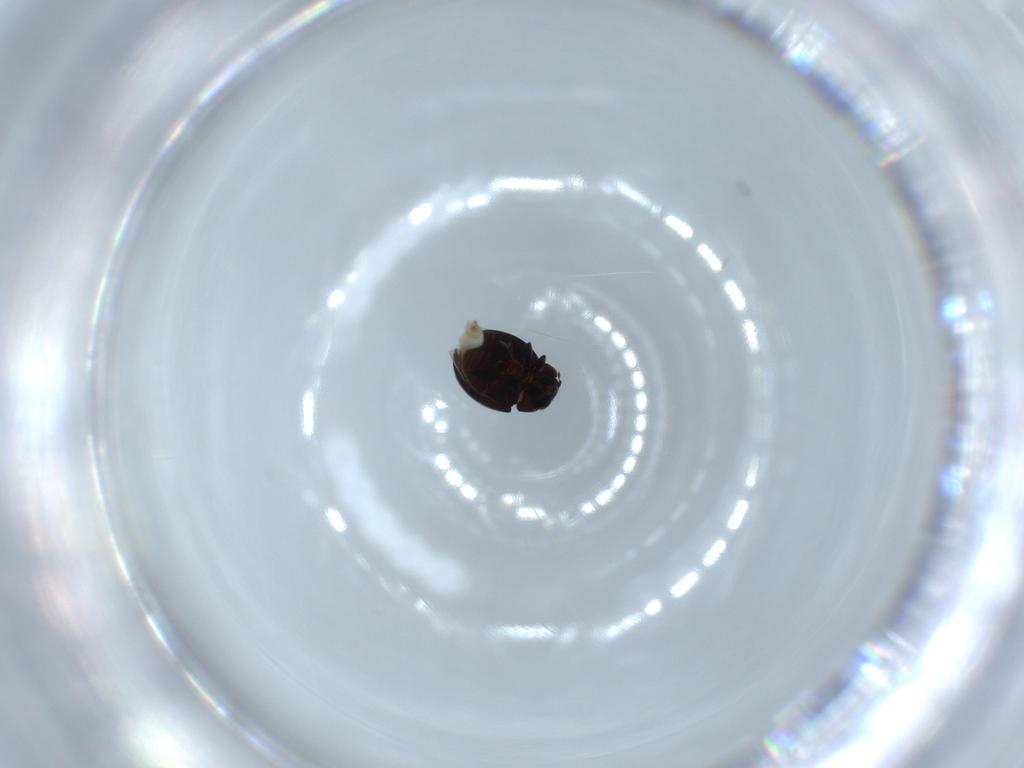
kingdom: Animalia
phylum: Arthropoda
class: Insecta
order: Coleoptera
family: Coccinellidae
